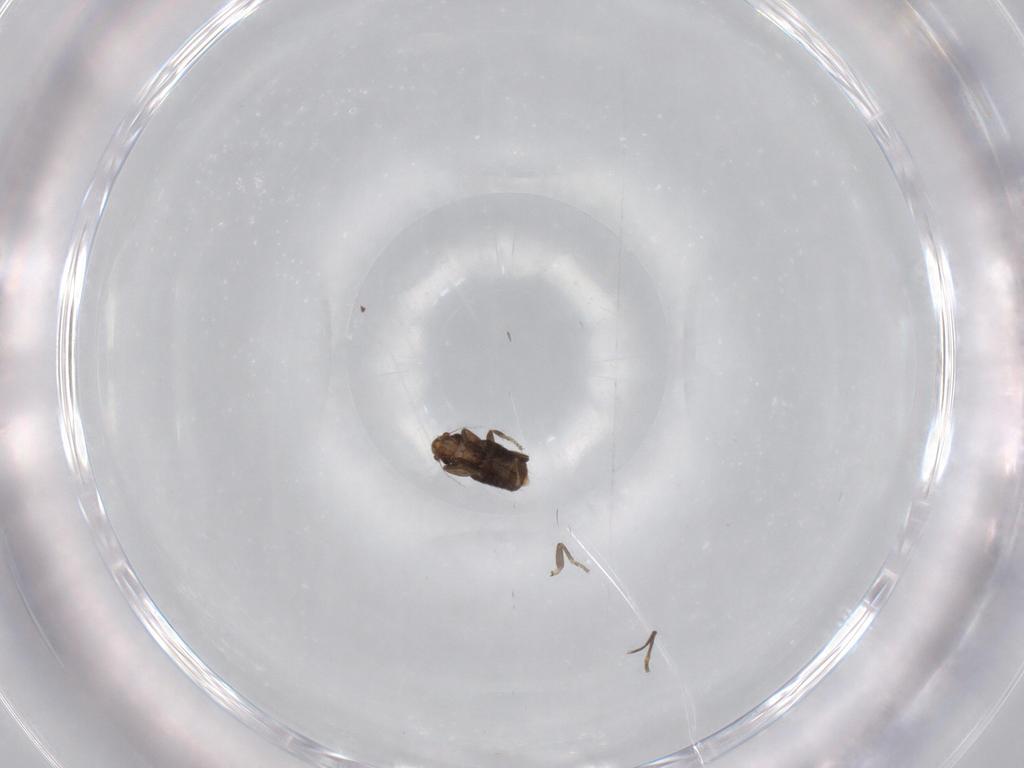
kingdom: Animalia
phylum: Arthropoda
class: Insecta
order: Diptera
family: Phoridae
